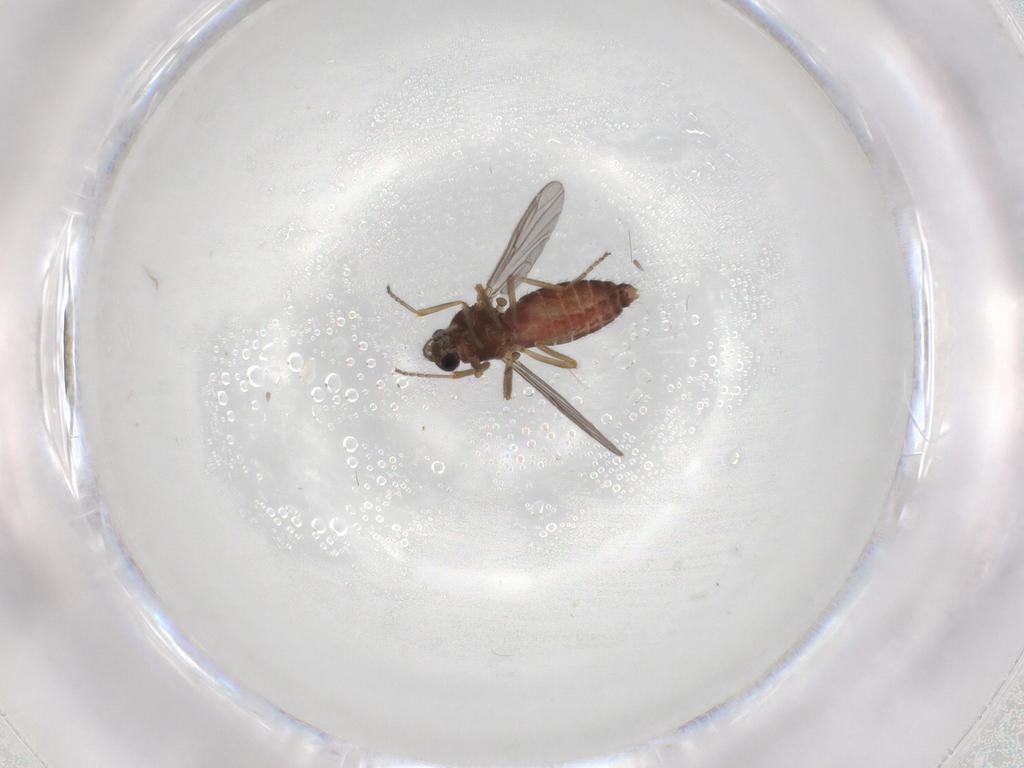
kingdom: Animalia
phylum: Arthropoda
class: Insecta
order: Diptera
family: Ceratopogonidae
